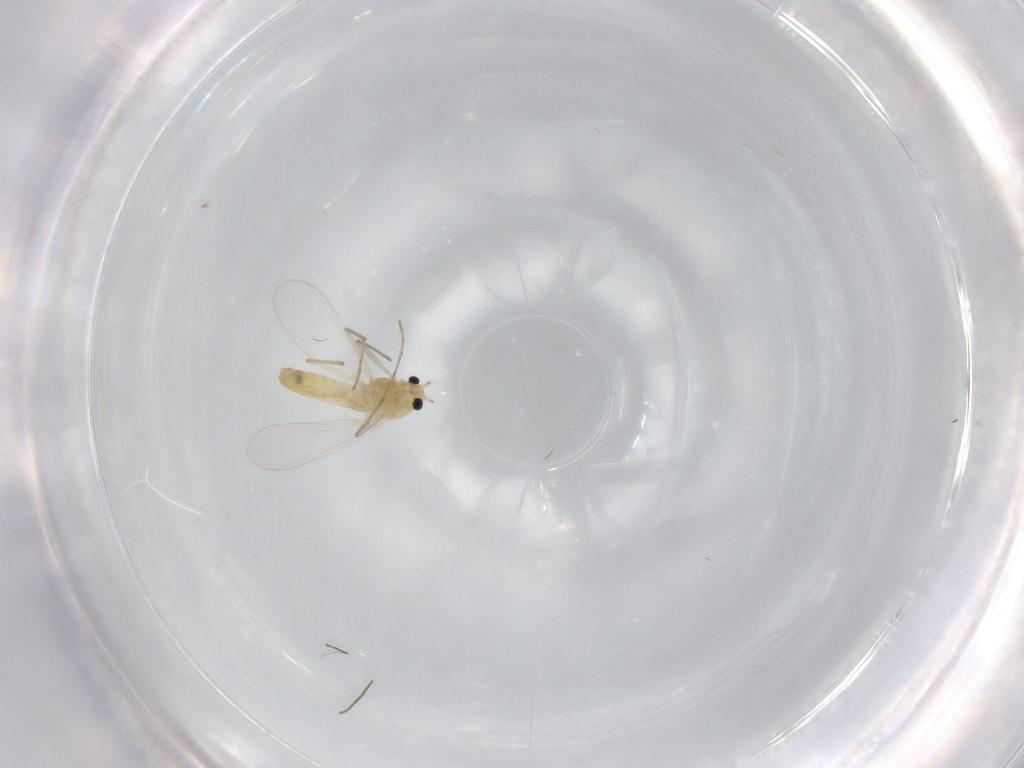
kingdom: Animalia
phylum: Arthropoda
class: Insecta
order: Diptera
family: Chironomidae
